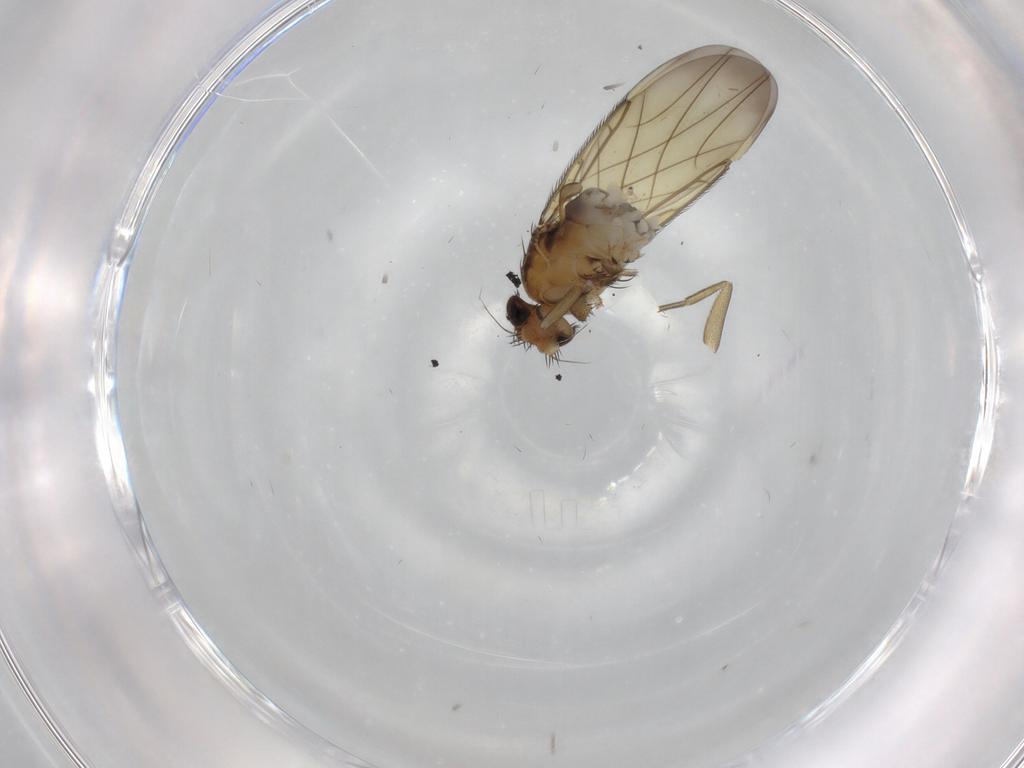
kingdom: Animalia
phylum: Arthropoda
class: Insecta
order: Diptera
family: Phoridae
